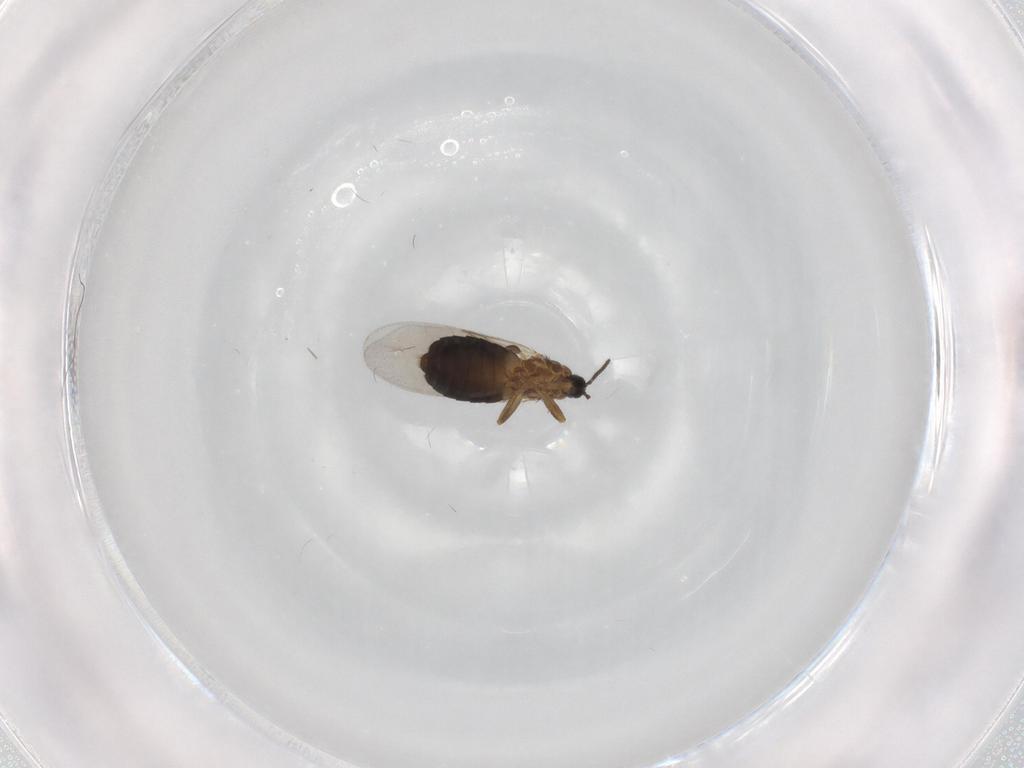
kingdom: Animalia
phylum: Arthropoda
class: Insecta
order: Diptera
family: Scatopsidae
